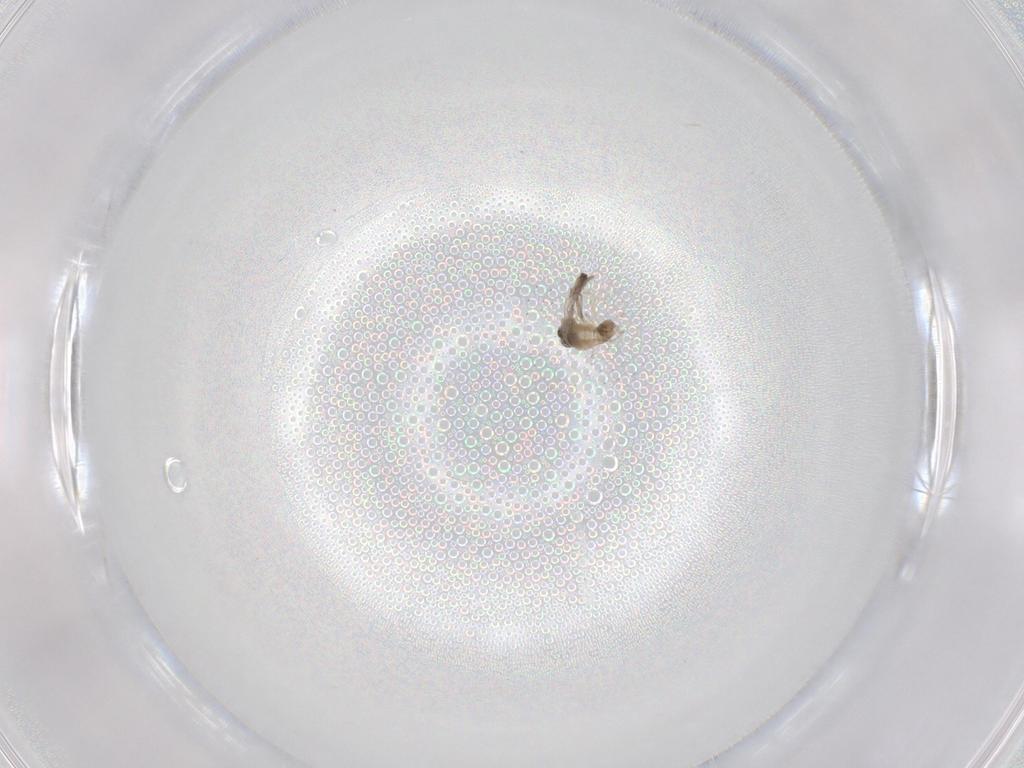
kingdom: Animalia
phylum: Arthropoda
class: Insecta
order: Diptera
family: Cecidomyiidae
